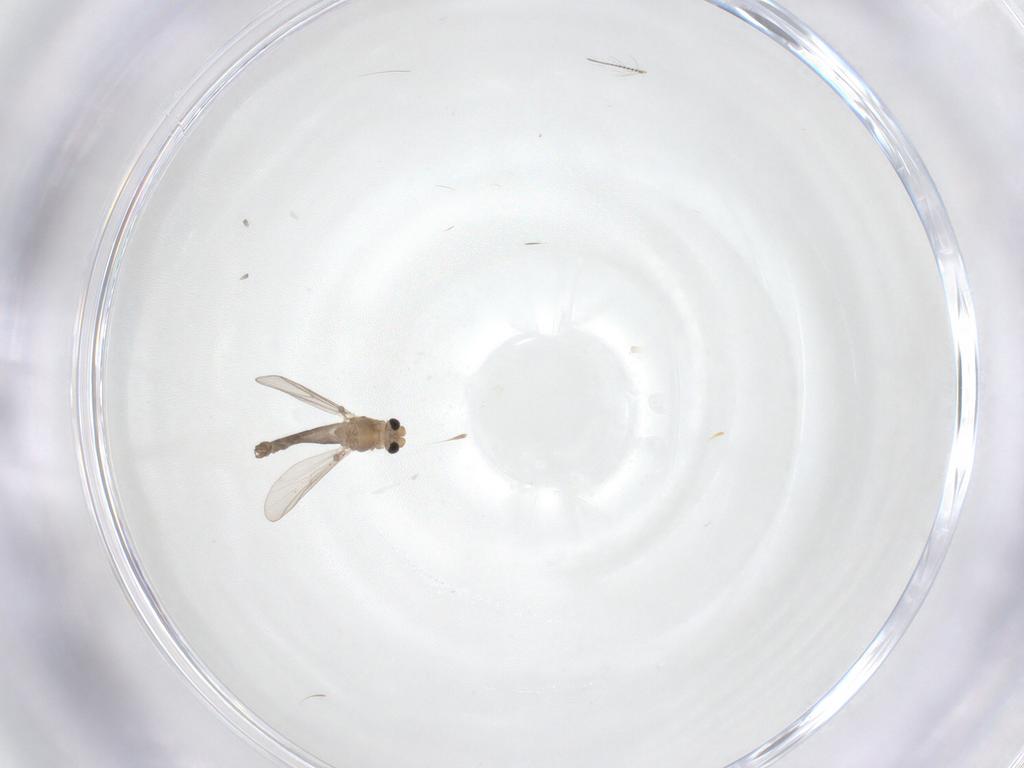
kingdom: Animalia
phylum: Arthropoda
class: Insecta
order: Diptera
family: Chironomidae
